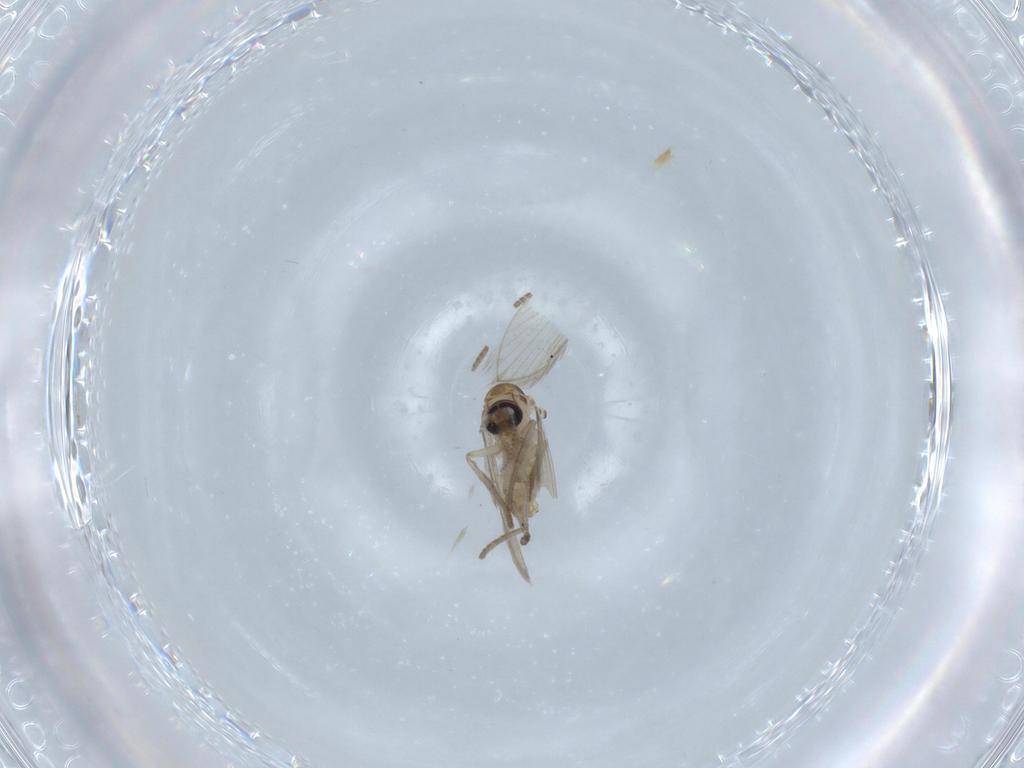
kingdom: Animalia
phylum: Arthropoda
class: Insecta
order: Diptera
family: Psychodidae
